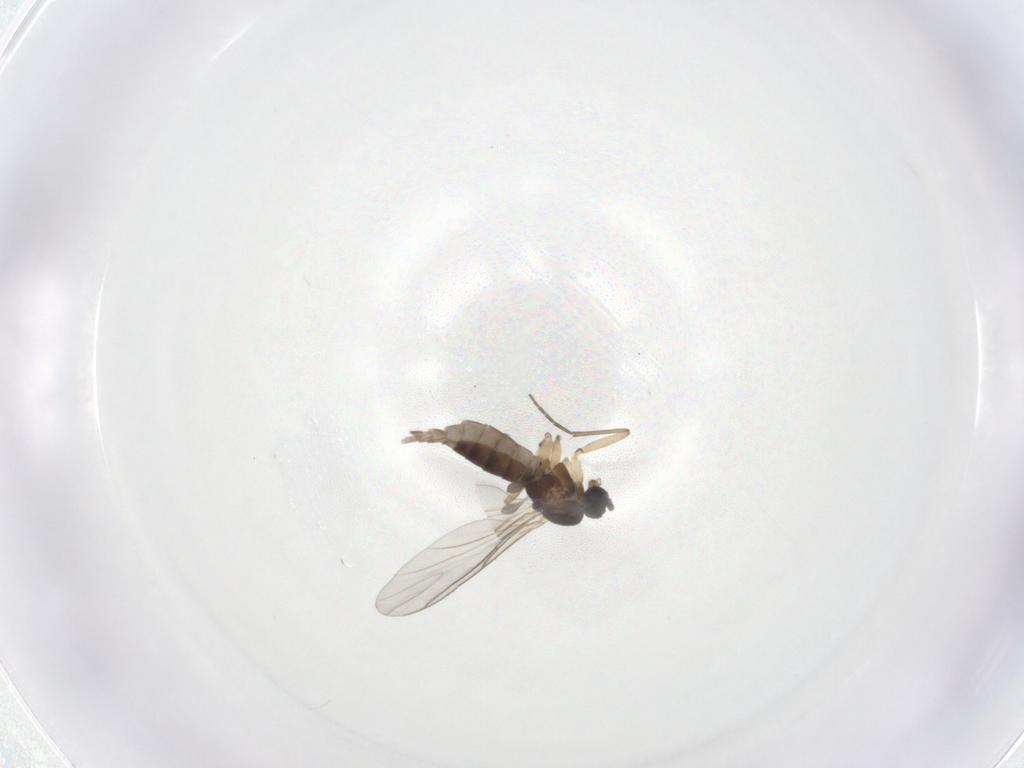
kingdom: Animalia
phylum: Arthropoda
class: Insecta
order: Diptera
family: Sciaridae
